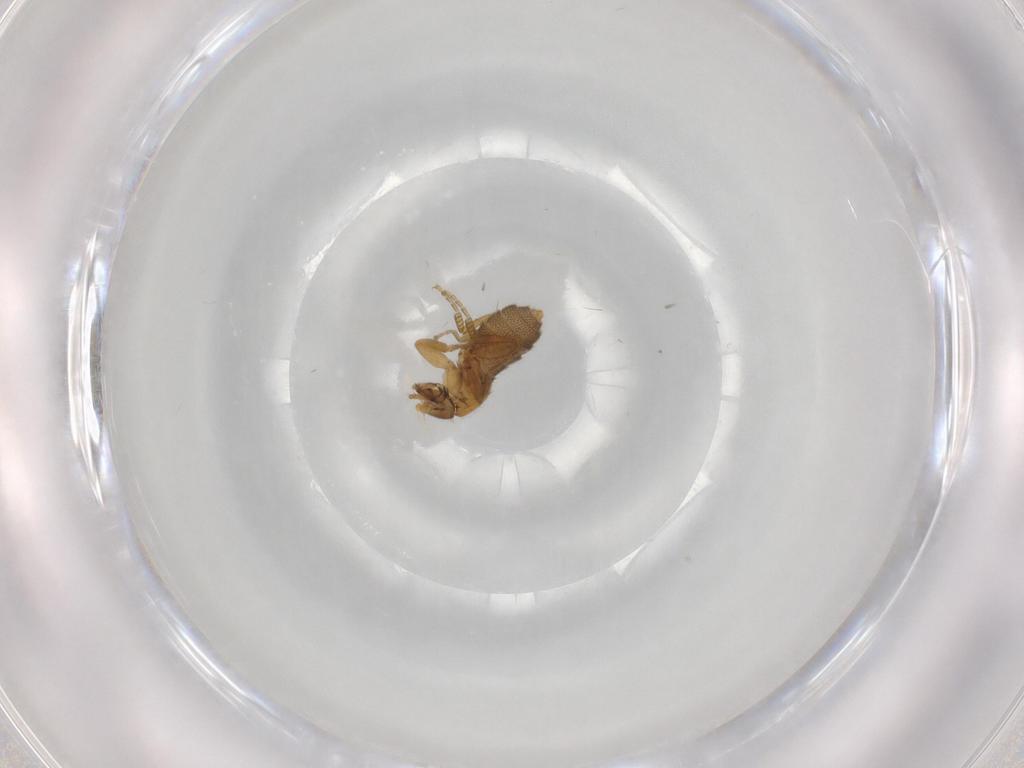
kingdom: Animalia
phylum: Arthropoda
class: Insecta
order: Diptera
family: Phoridae
